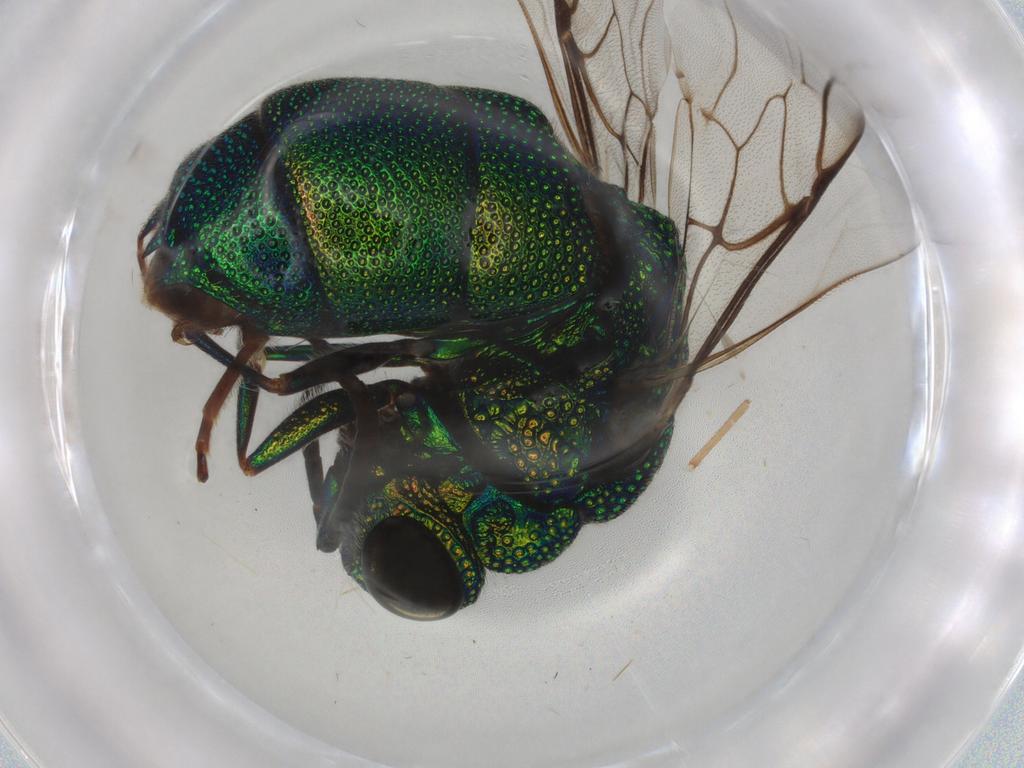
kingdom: Animalia
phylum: Arthropoda
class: Insecta
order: Hymenoptera
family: Chrysididae
